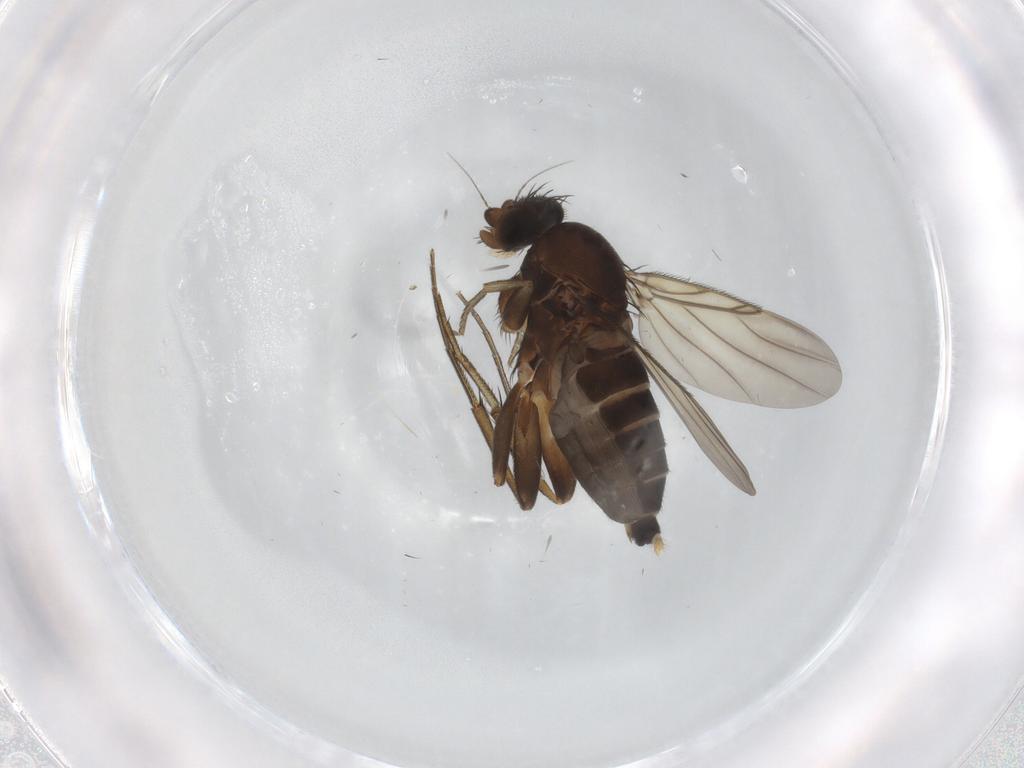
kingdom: Animalia
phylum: Arthropoda
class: Insecta
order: Diptera
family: Phoridae
